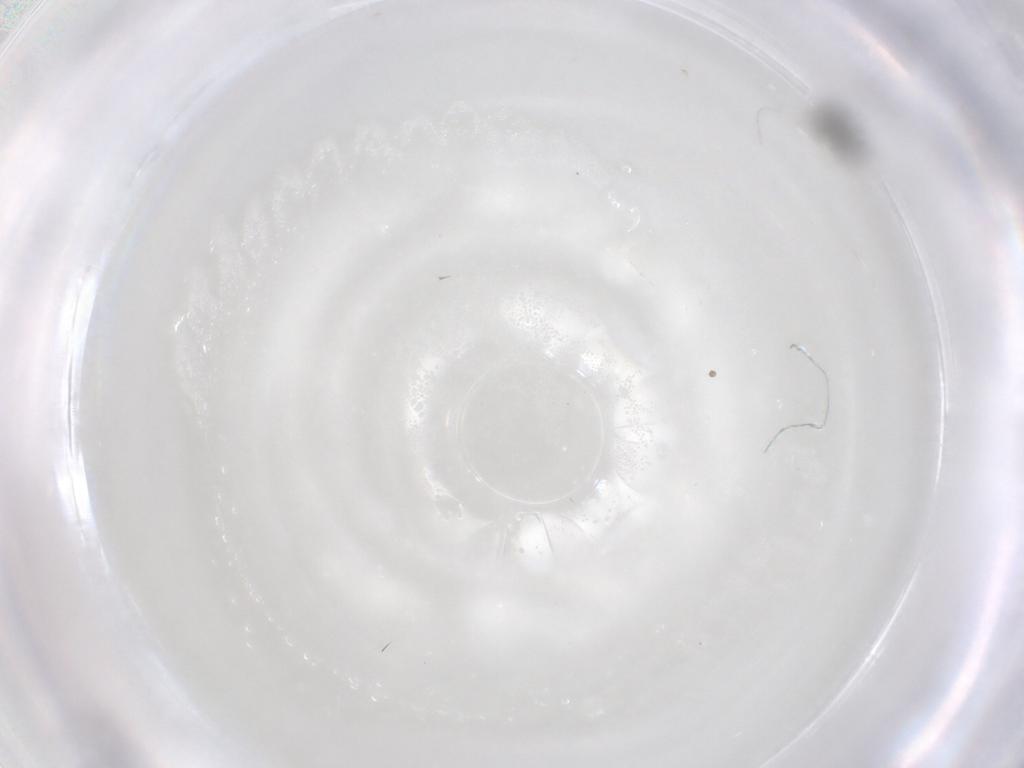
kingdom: Animalia
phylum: Arthropoda
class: Insecta
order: Diptera
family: Phoridae
